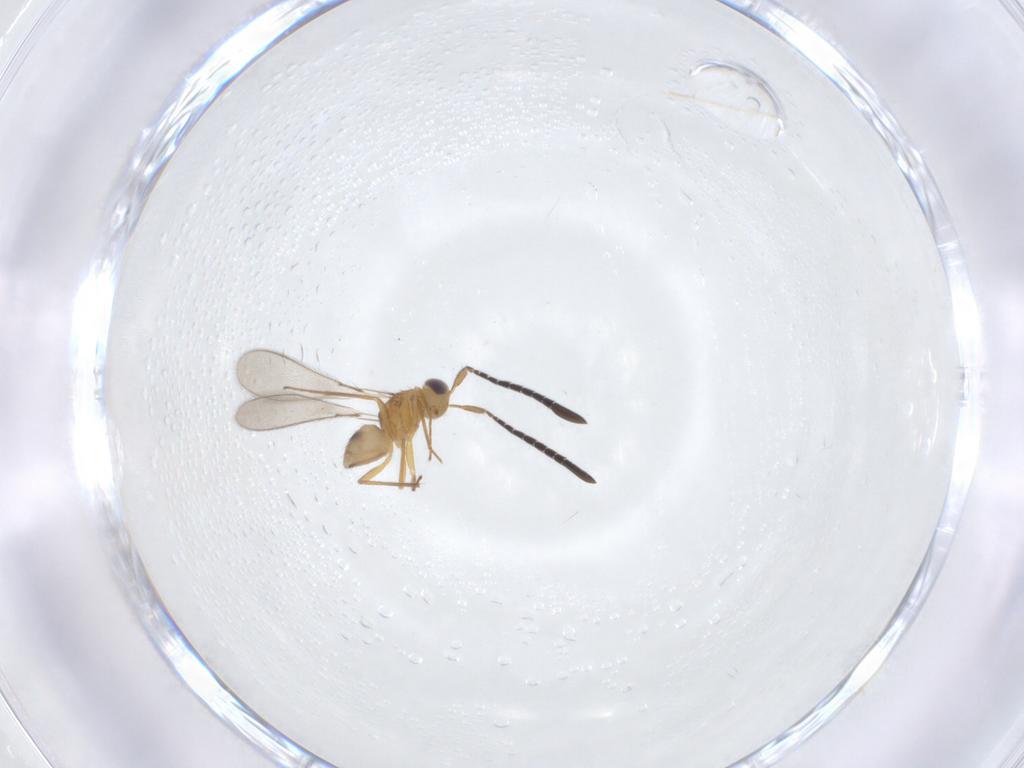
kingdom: Animalia
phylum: Arthropoda
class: Insecta
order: Hymenoptera
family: Mymaridae
